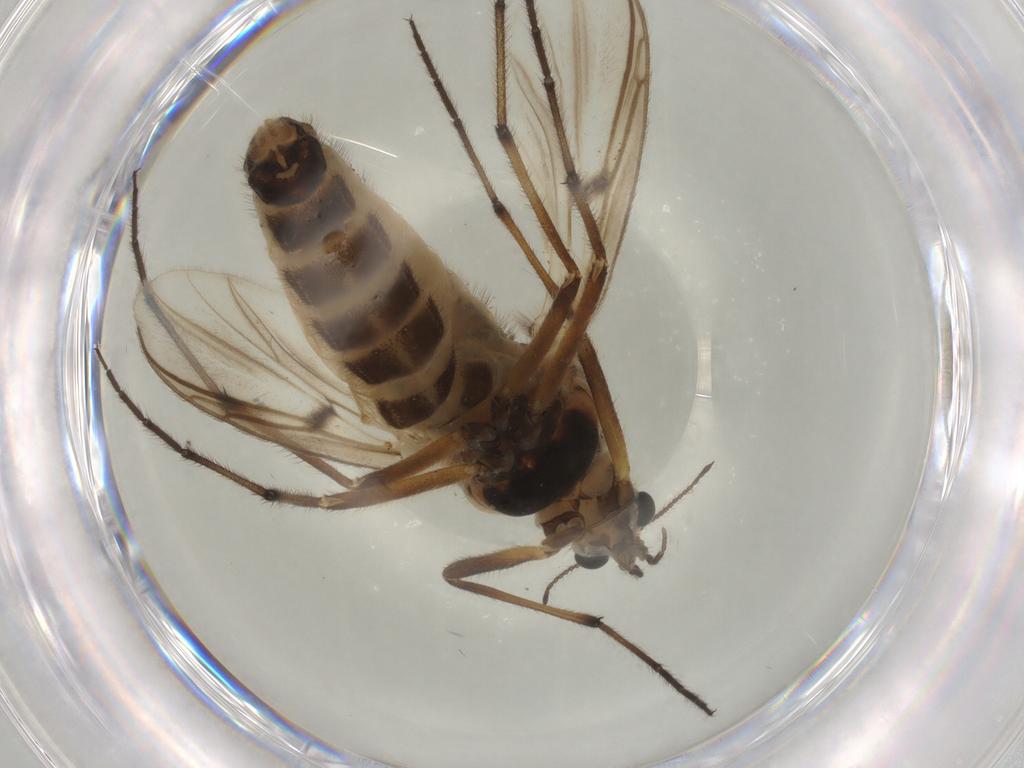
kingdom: Animalia
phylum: Arthropoda
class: Insecta
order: Diptera
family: Chironomidae
